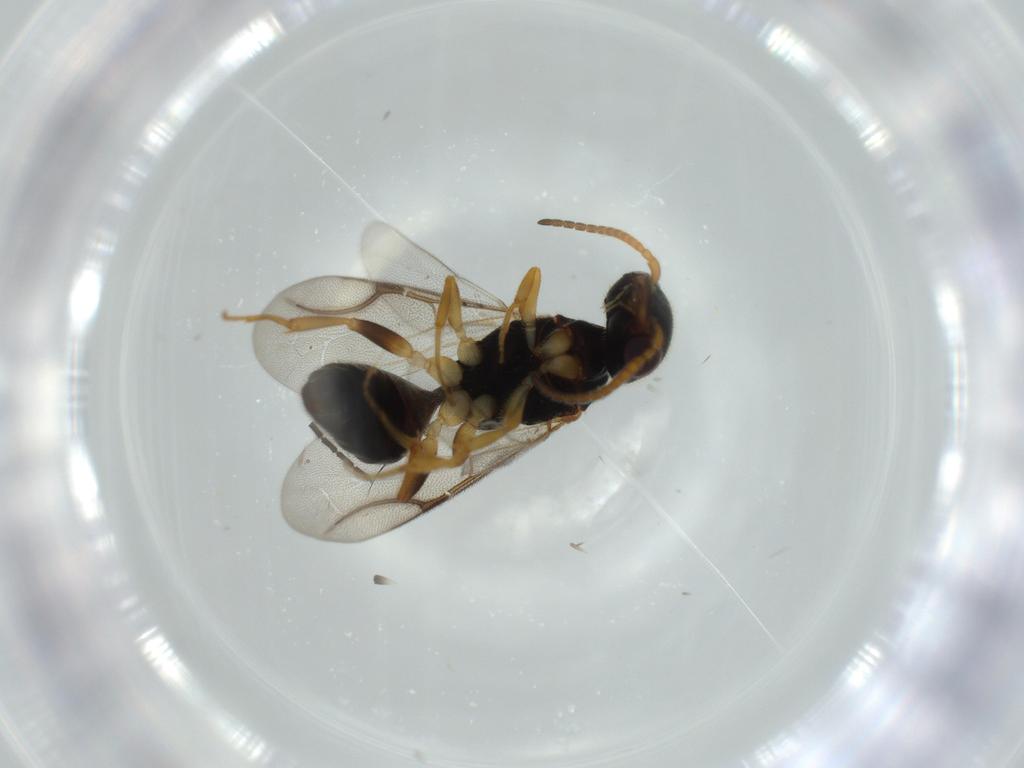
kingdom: Animalia
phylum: Arthropoda
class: Insecta
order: Hymenoptera
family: Bethylidae
